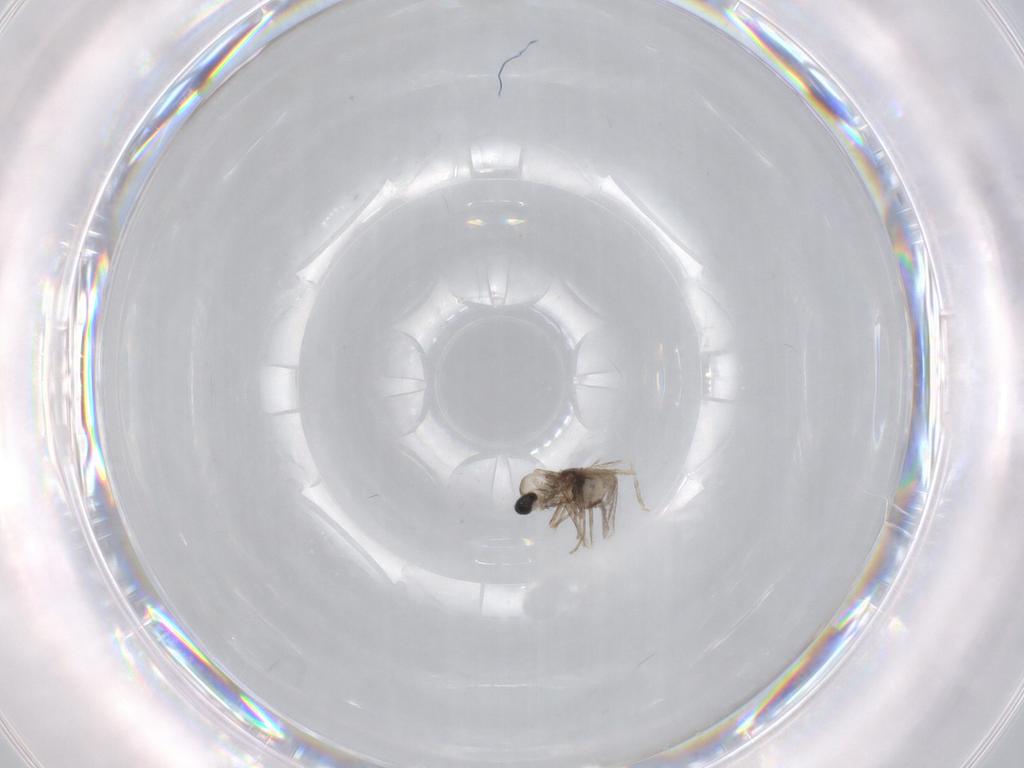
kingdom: Animalia
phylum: Arthropoda
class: Insecta
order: Diptera
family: Cecidomyiidae
